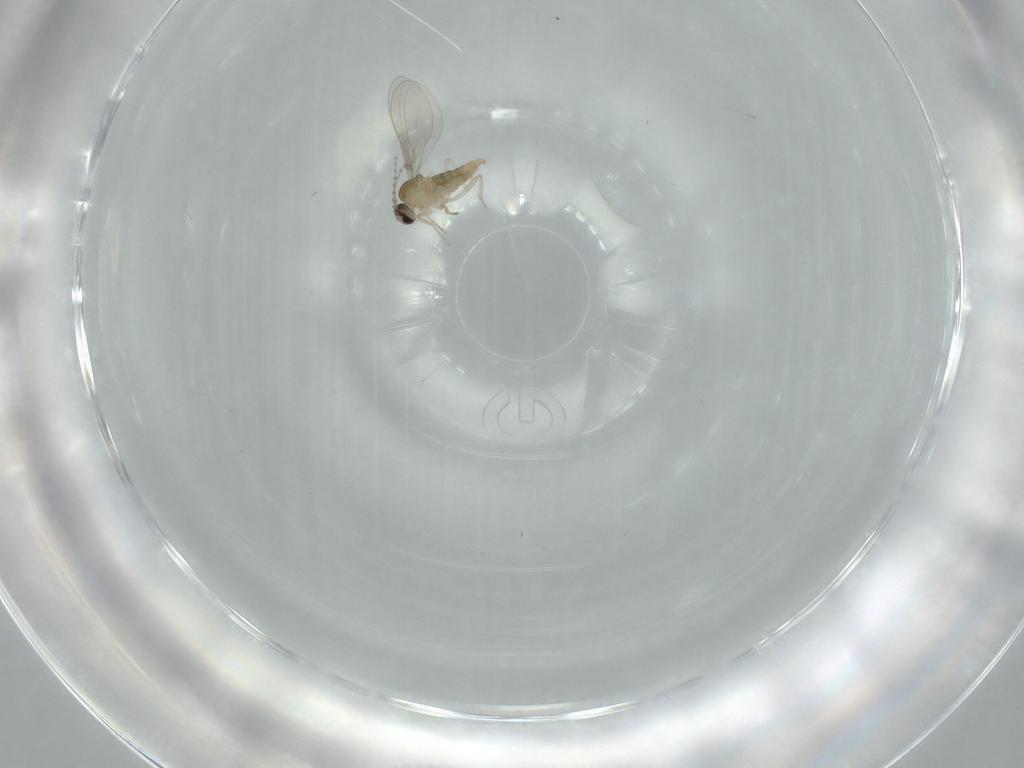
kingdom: Animalia
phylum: Arthropoda
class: Insecta
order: Diptera
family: Cecidomyiidae
